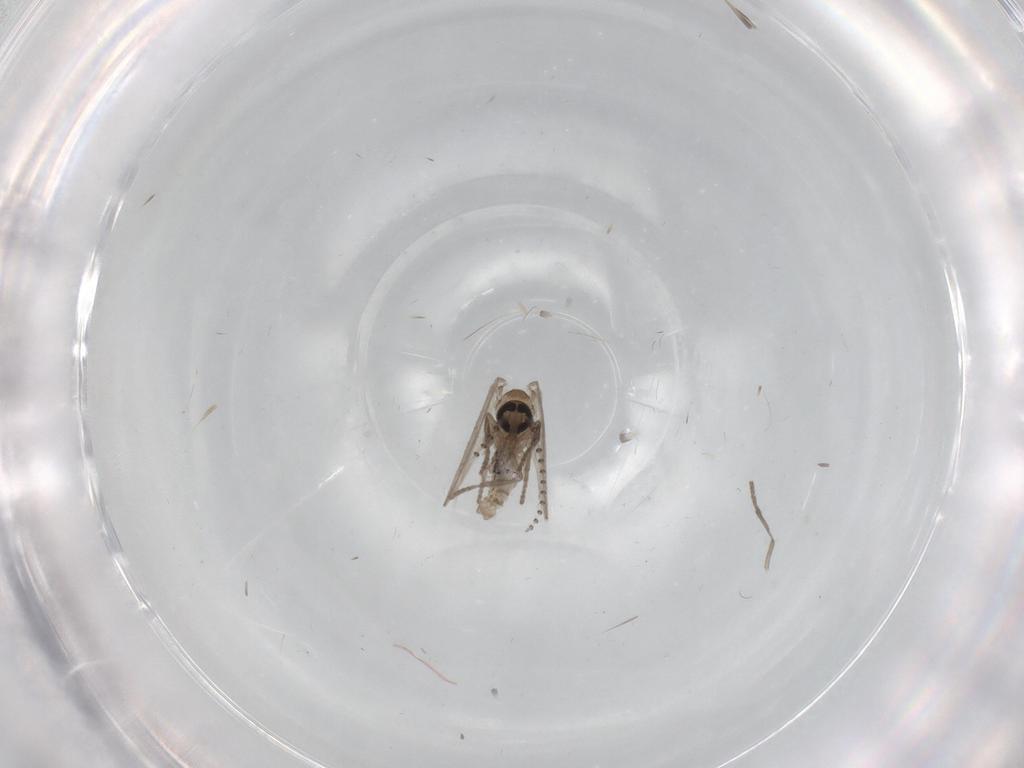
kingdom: Animalia
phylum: Arthropoda
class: Insecta
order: Diptera
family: Psychodidae
